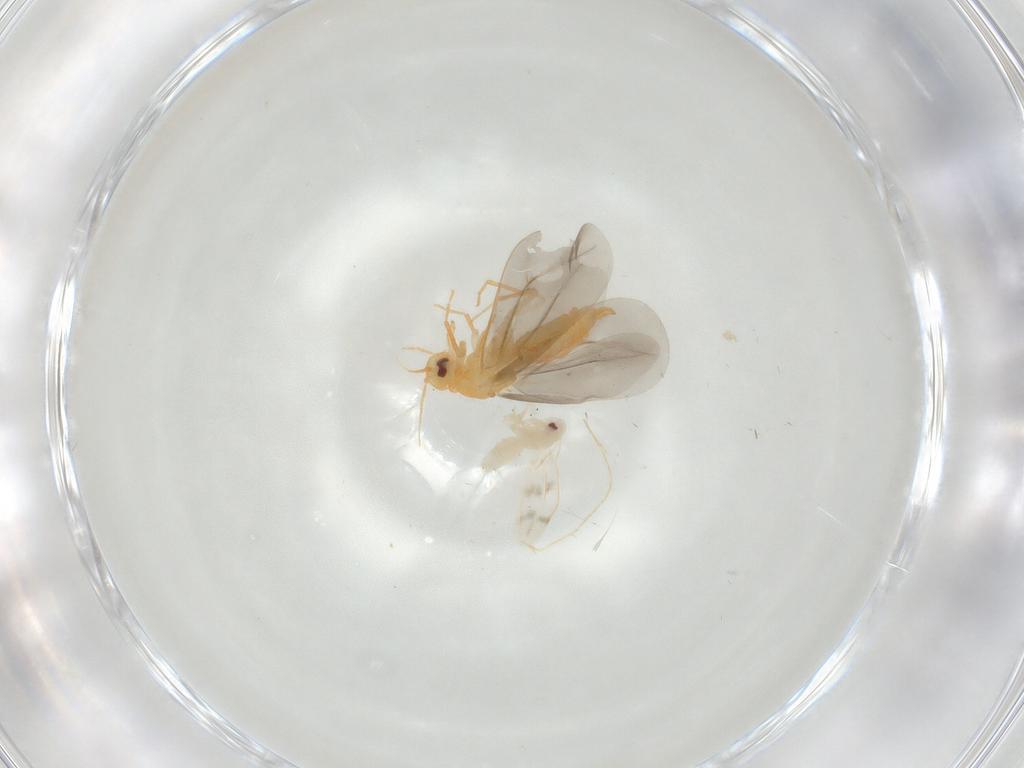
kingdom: Animalia
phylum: Arthropoda
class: Insecta
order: Hemiptera
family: Aleyrodidae
